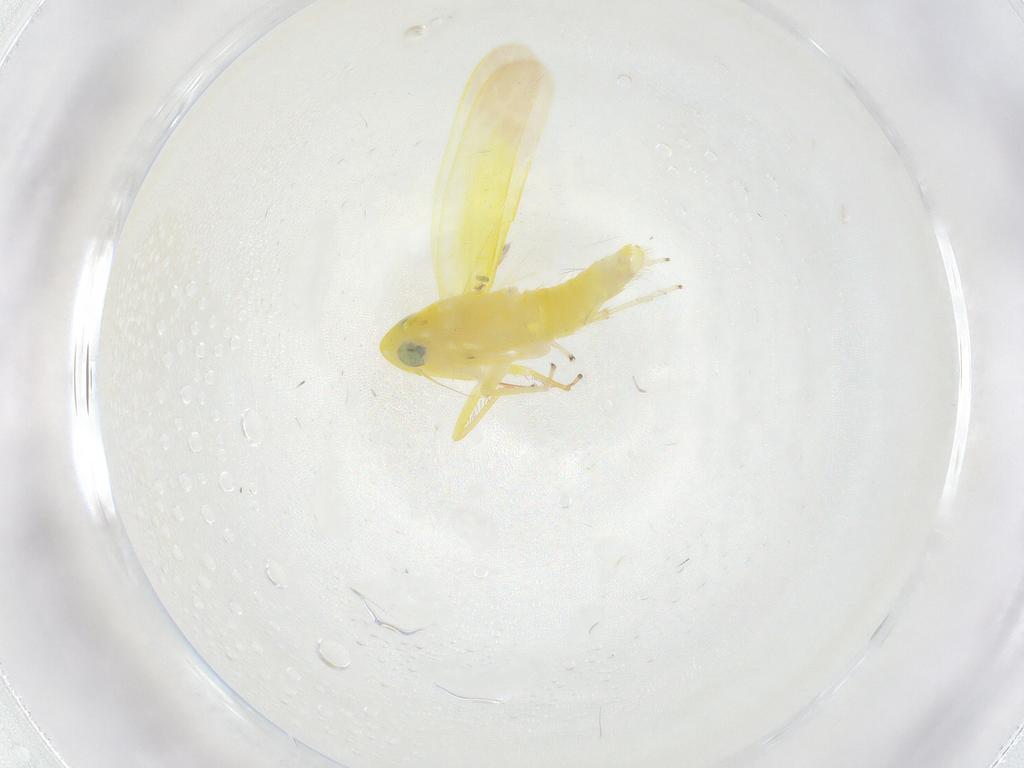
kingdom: Animalia
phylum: Arthropoda
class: Insecta
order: Hemiptera
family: Cicadellidae
